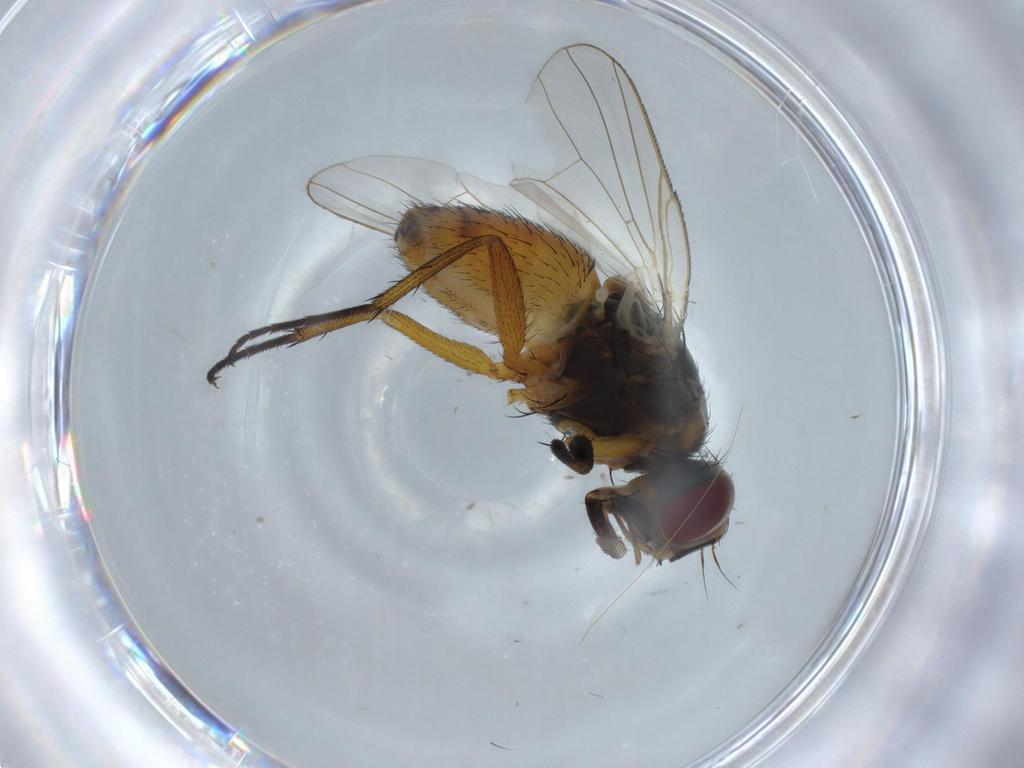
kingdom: Animalia
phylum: Arthropoda
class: Insecta
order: Diptera
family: Muscidae
